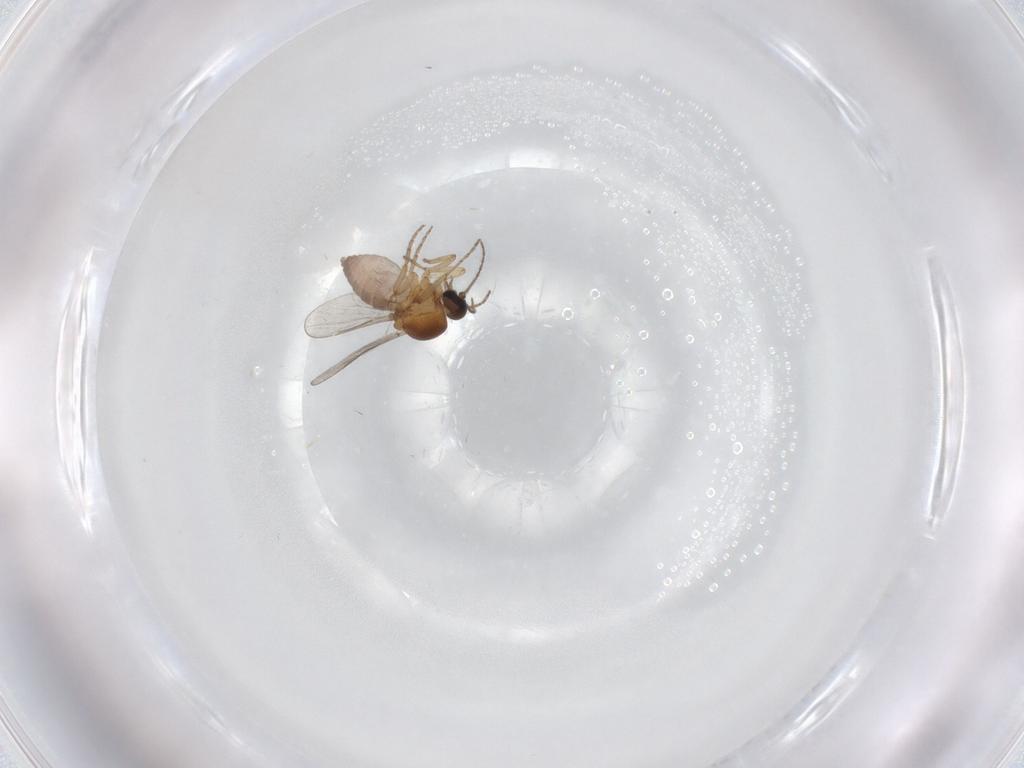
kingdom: Animalia
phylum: Arthropoda
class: Insecta
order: Diptera
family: Ceratopogonidae
